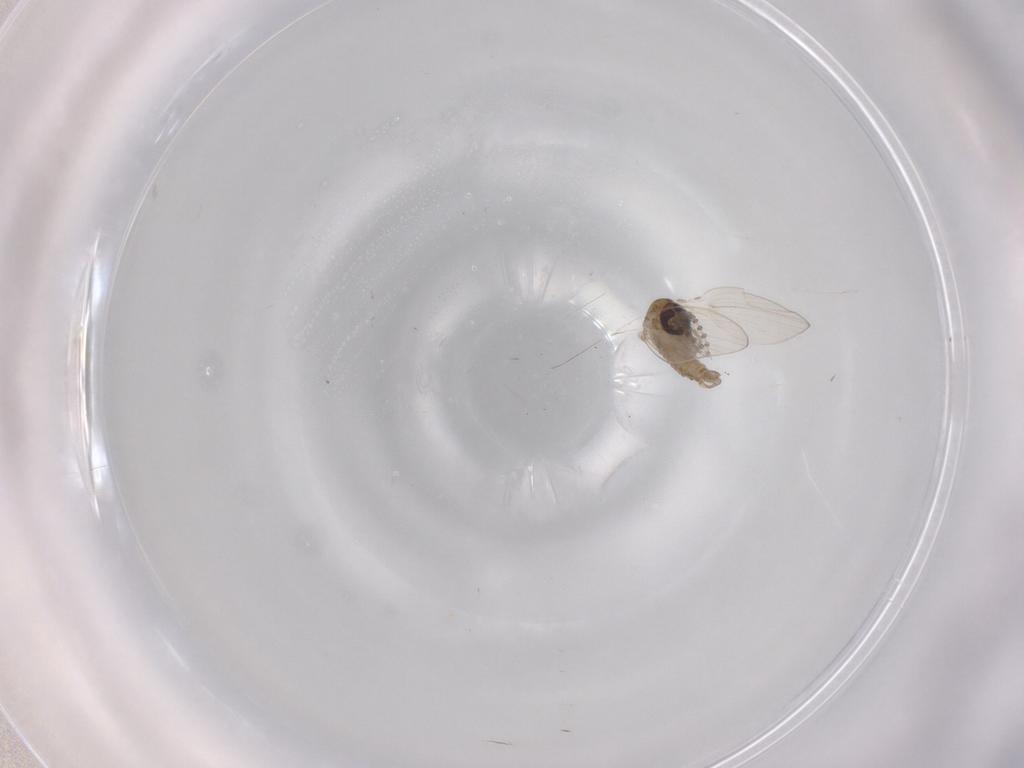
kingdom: Animalia
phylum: Arthropoda
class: Insecta
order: Diptera
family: Psychodidae
